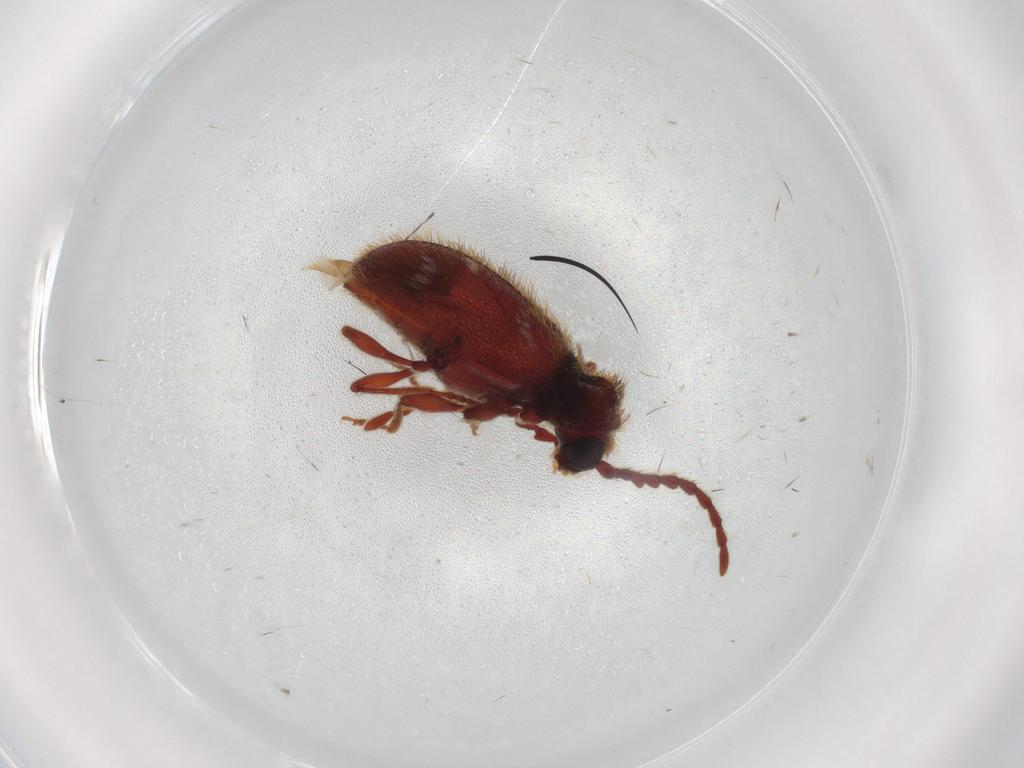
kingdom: Animalia
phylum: Arthropoda
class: Insecta
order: Coleoptera
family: Ptinidae
